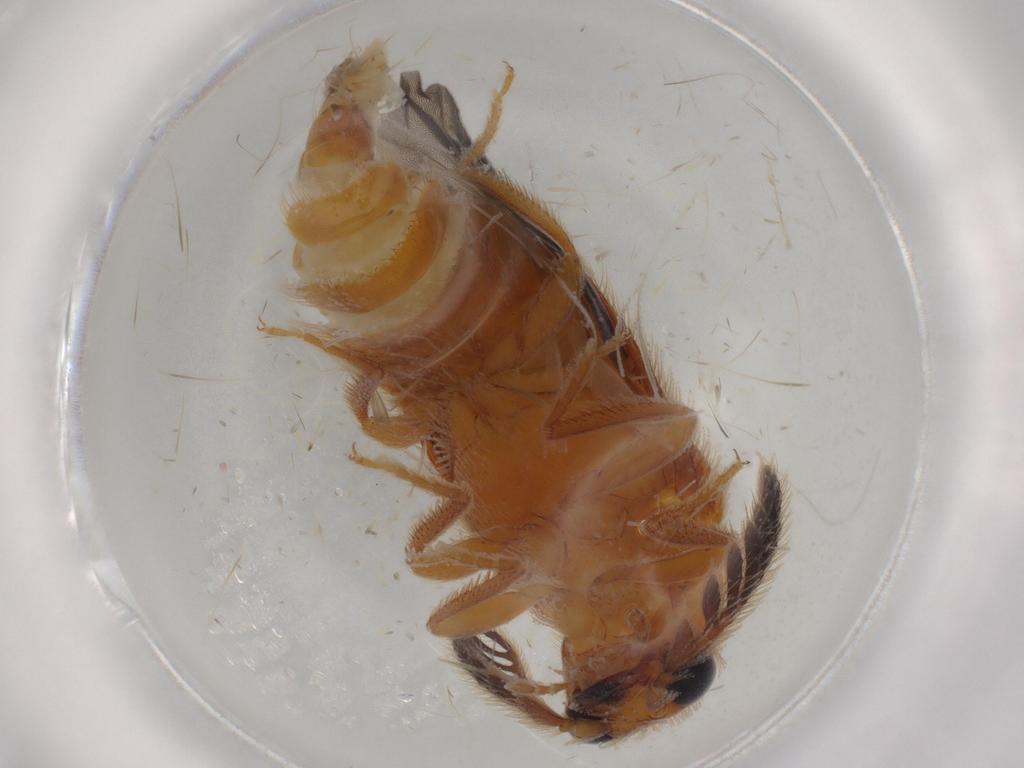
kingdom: Animalia
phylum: Arthropoda
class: Insecta
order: Coleoptera
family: Elateridae
